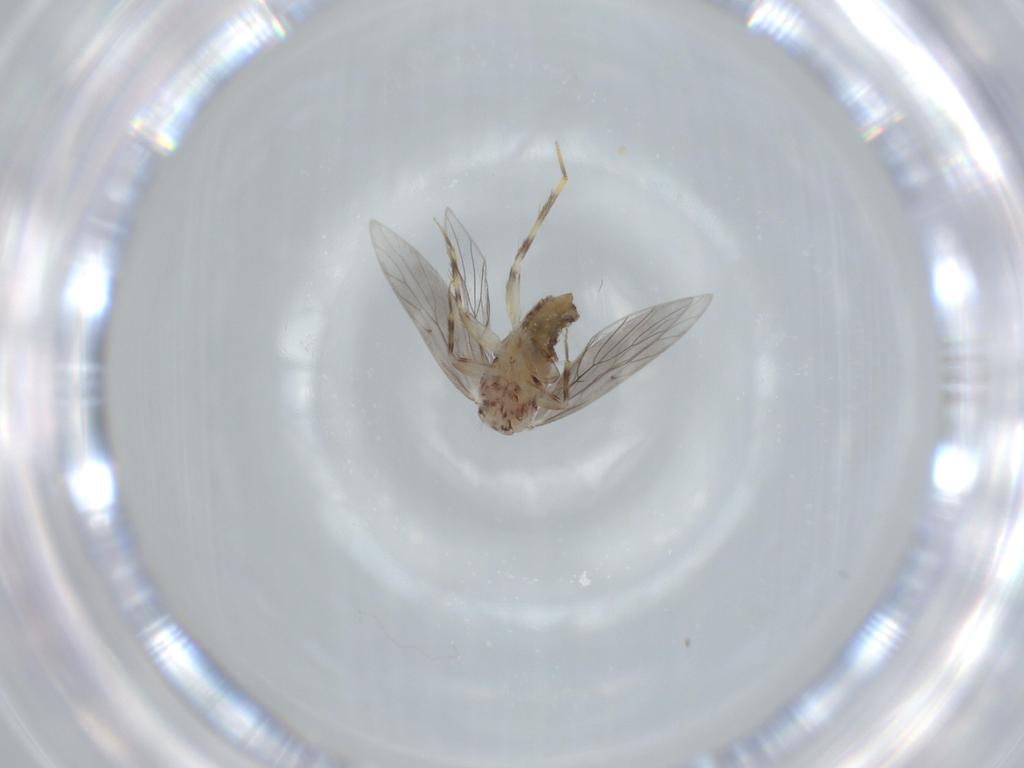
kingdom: Animalia
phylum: Arthropoda
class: Insecta
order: Psocodea
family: Lepidopsocidae
